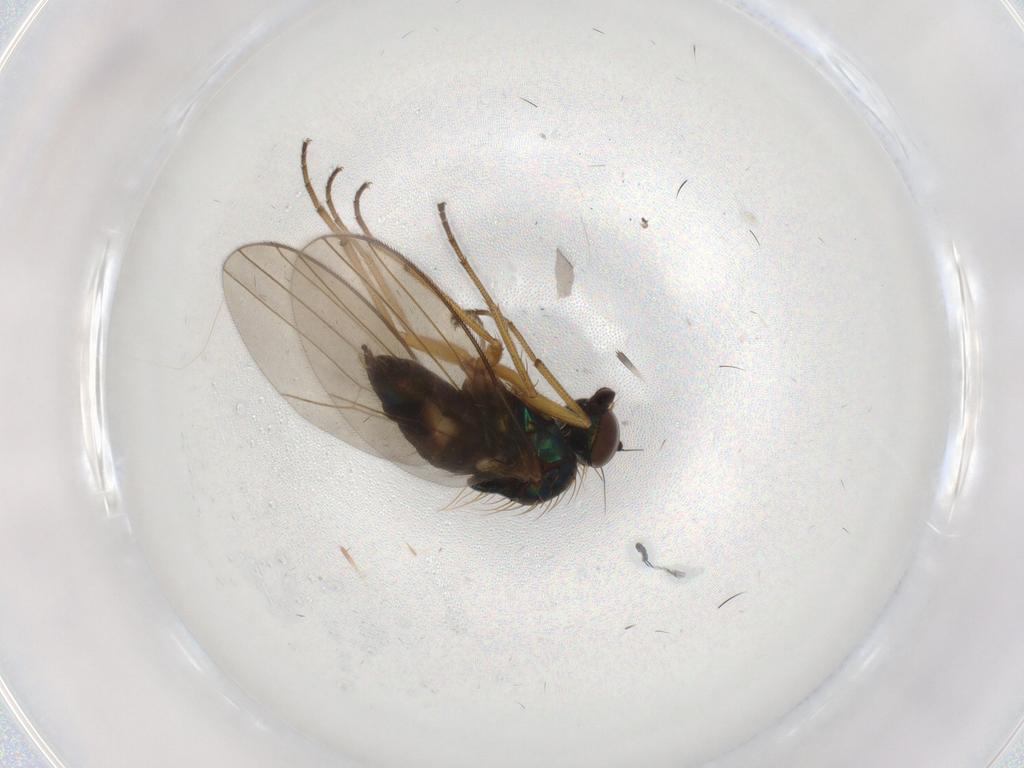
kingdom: Animalia
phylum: Arthropoda
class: Insecta
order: Diptera
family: Dolichopodidae
